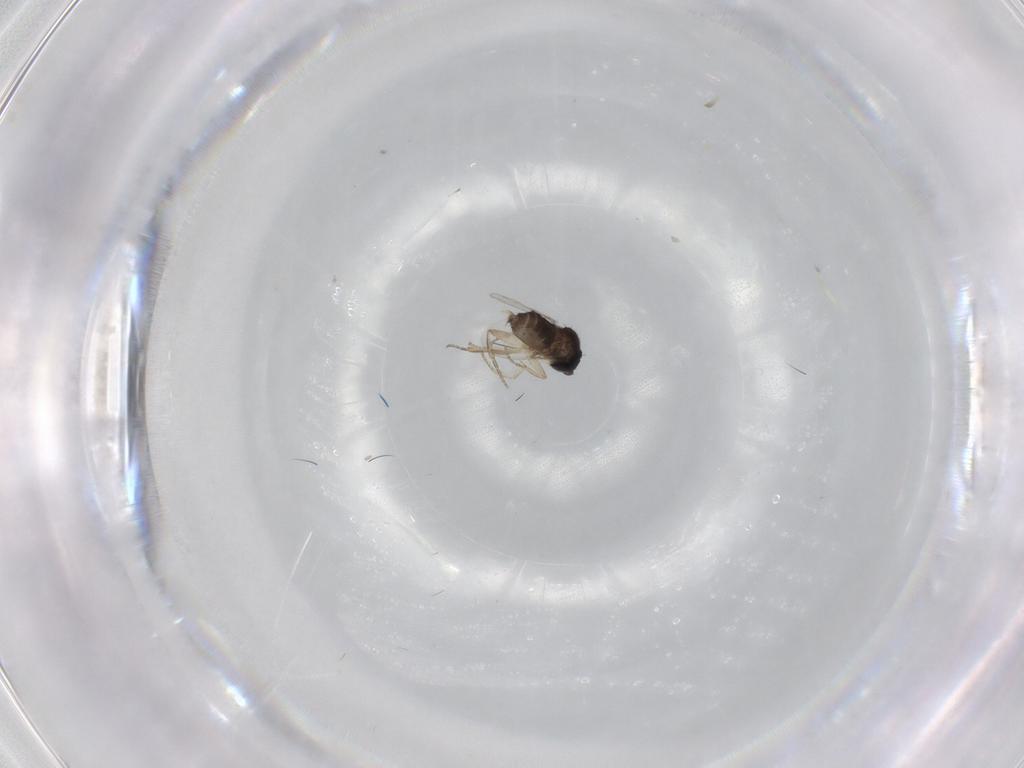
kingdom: Animalia
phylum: Arthropoda
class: Insecta
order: Diptera
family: Phoridae
